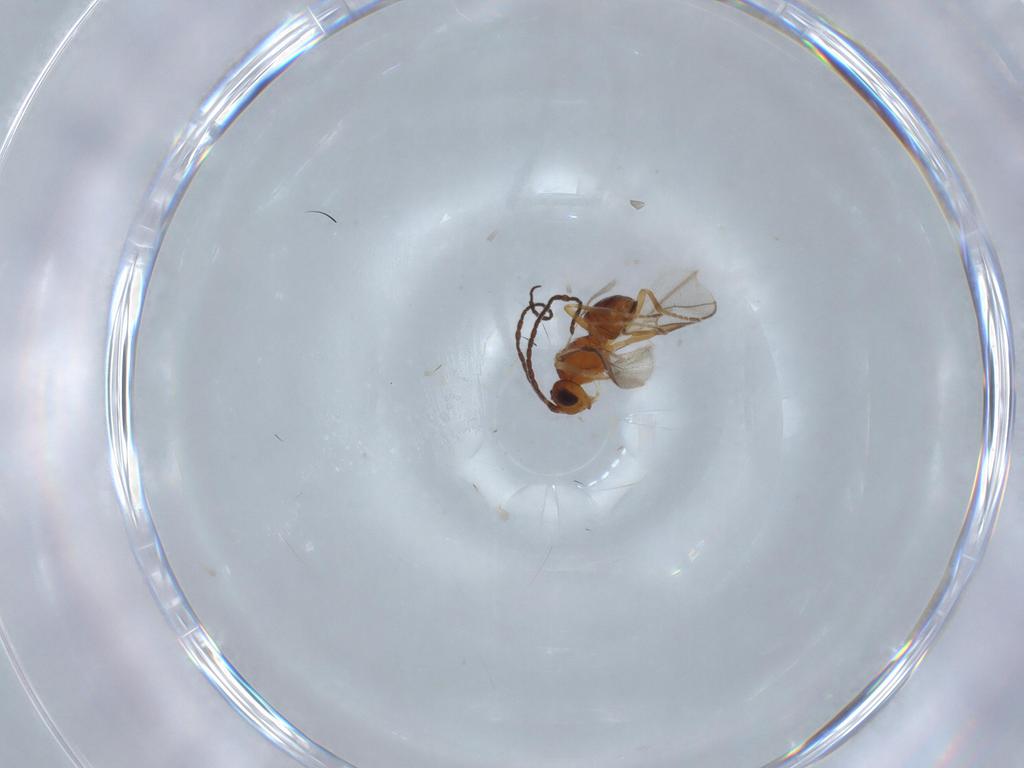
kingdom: Animalia
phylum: Arthropoda
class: Insecta
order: Hymenoptera
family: Braconidae
